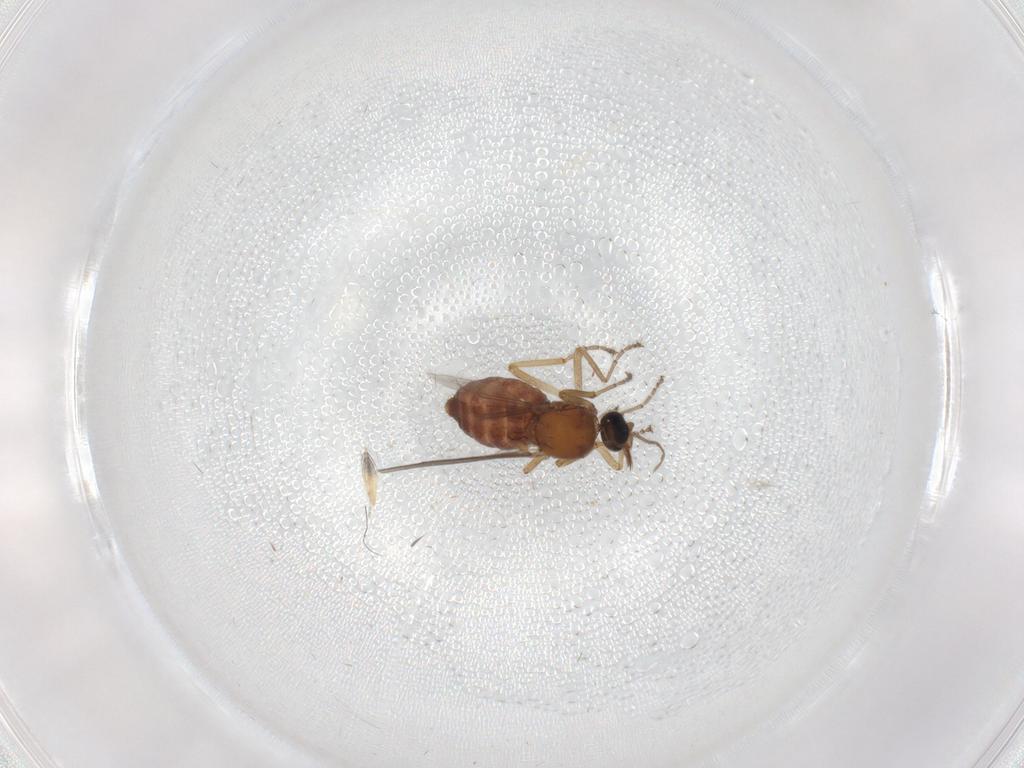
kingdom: Animalia
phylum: Arthropoda
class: Insecta
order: Diptera
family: Ceratopogonidae
